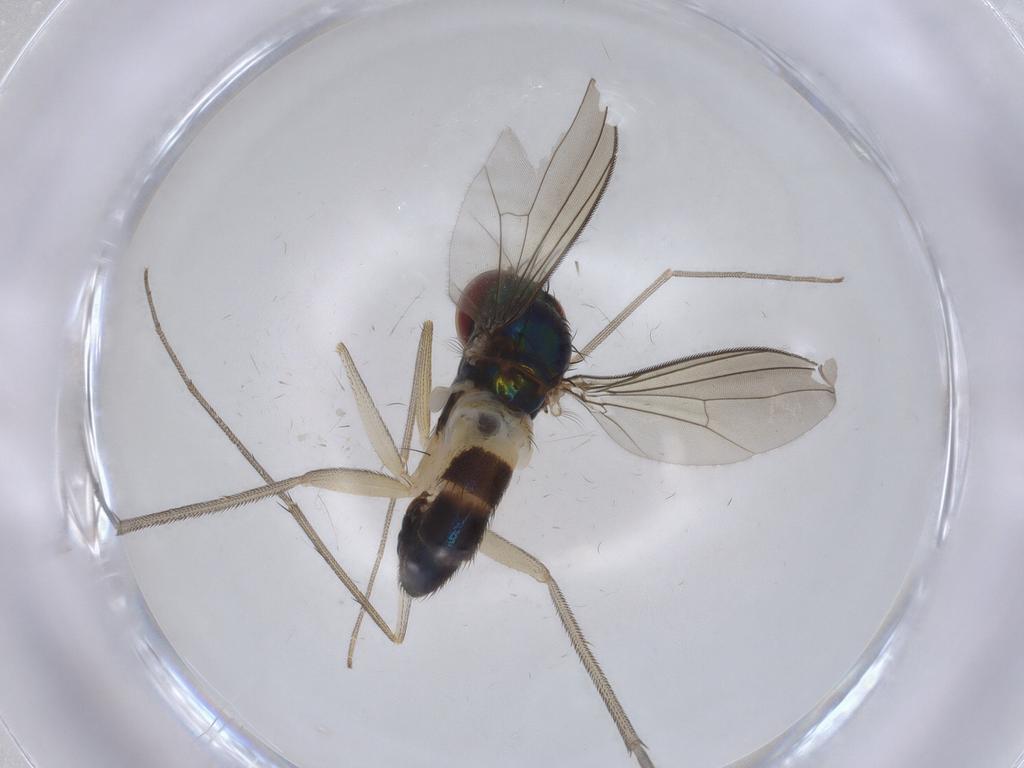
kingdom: Animalia
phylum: Arthropoda
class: Insecta
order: Diptera
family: Dolichopodidae
